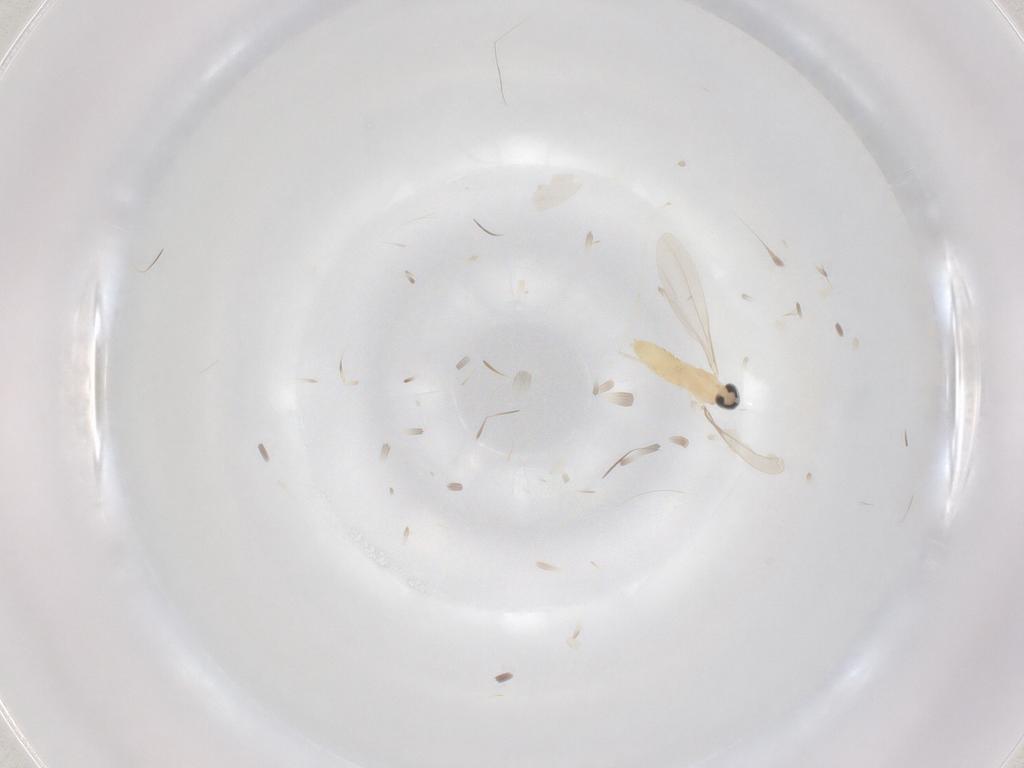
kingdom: Animalia
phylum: Arthropoda
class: Insecta
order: Diptera
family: Cecidomyiidae
